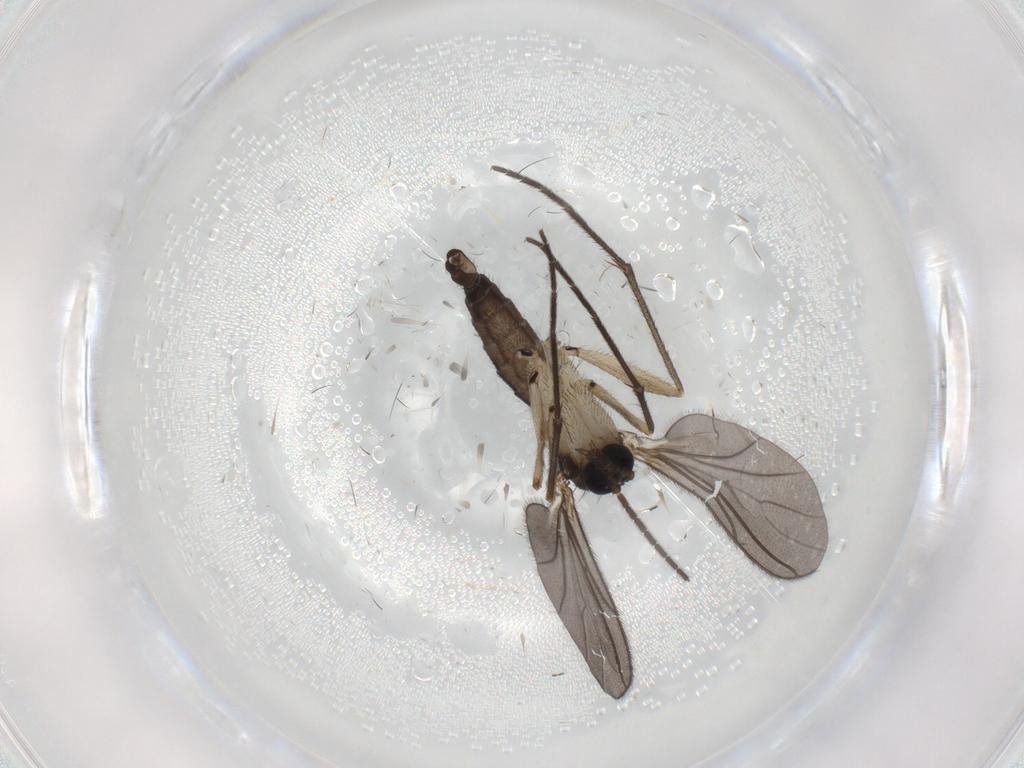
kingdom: Animalia
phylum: Arthropoda
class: Insecta
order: Diptera
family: Sciaridae
